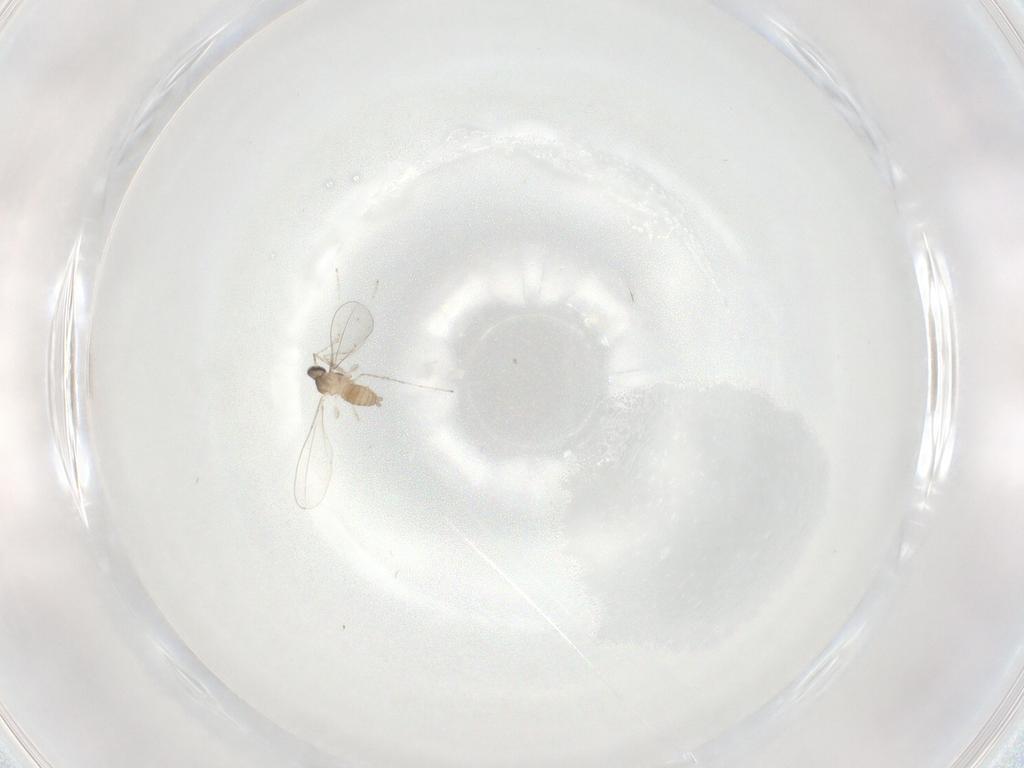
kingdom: Animalia
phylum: Arthropoda
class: Insecta
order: Diptera
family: Cecidomyiidae
